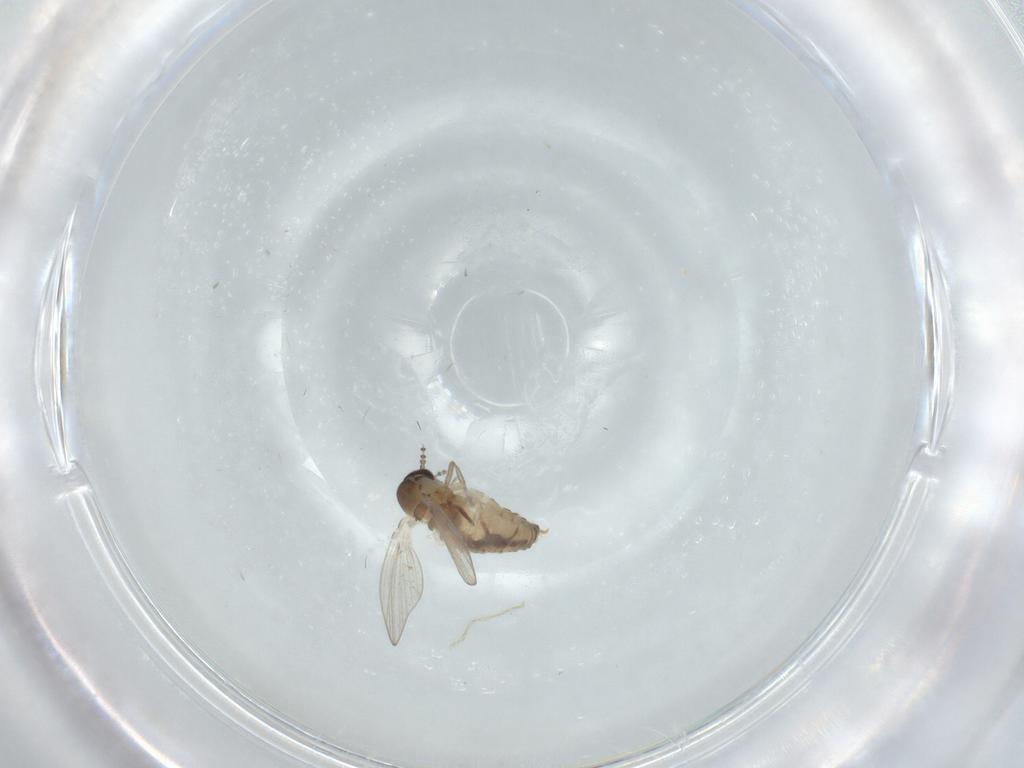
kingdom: Animalia
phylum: Arthropoda
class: Insecta
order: Diptera
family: Psychodidae
